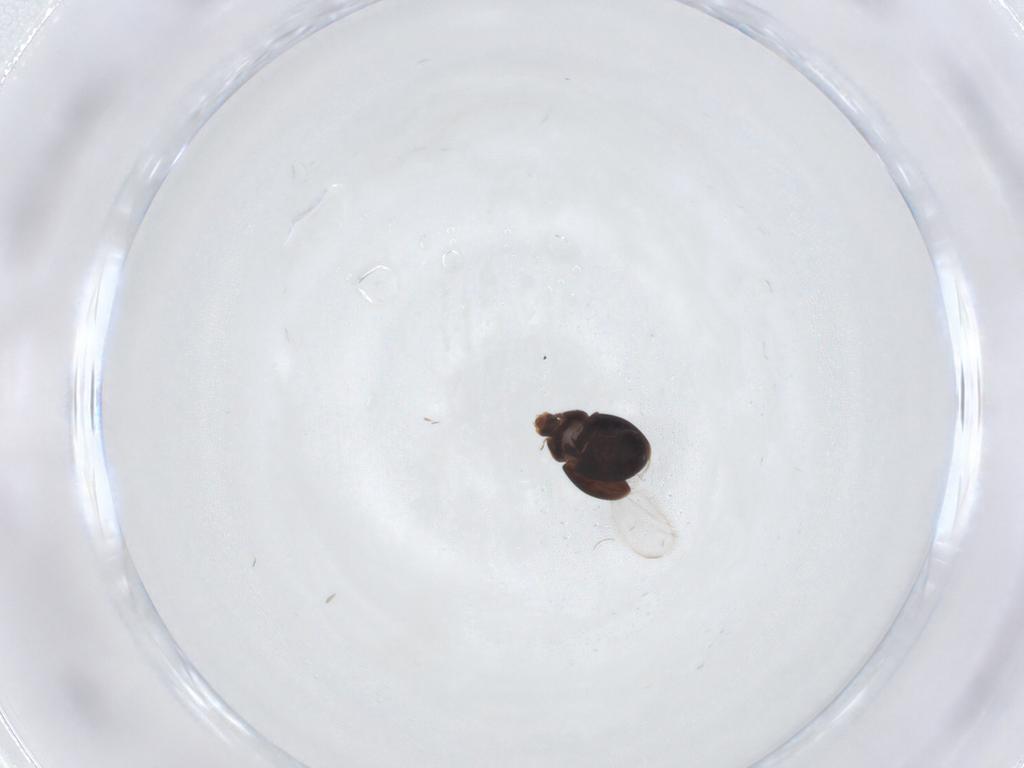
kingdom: Animalia
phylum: Arthropoda
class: Insecta
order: Coleoptera
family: Corylophidae
